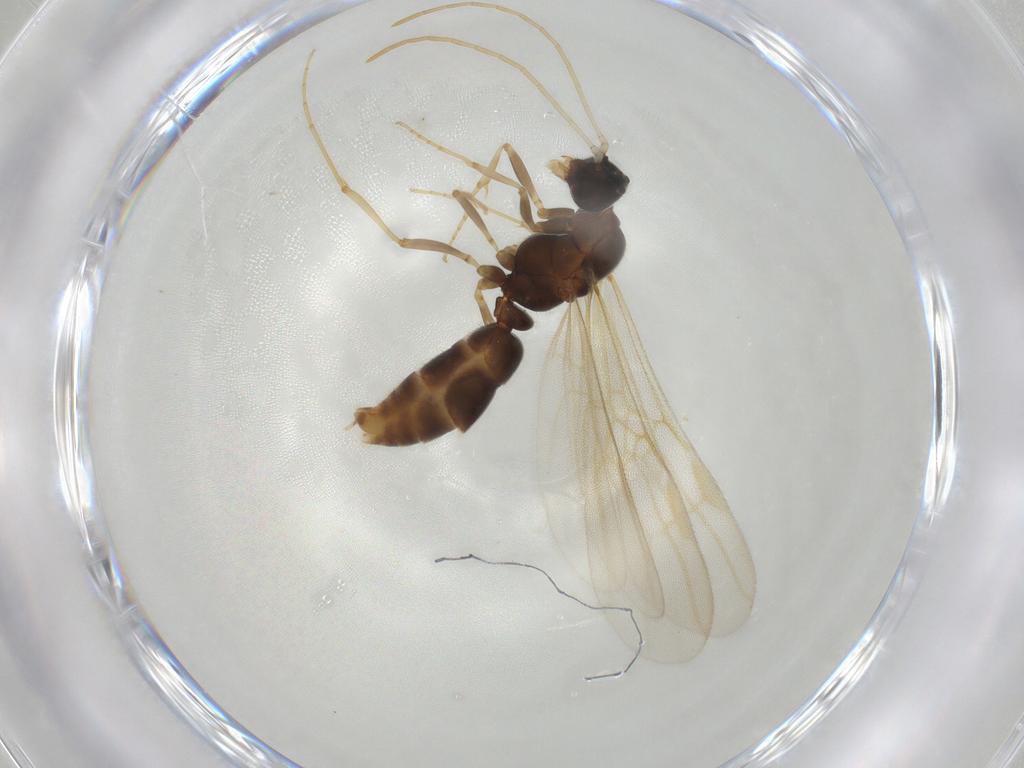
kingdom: Animalia
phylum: Arthropoda
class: Insecta
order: Hymenoptera
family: Formicidae
